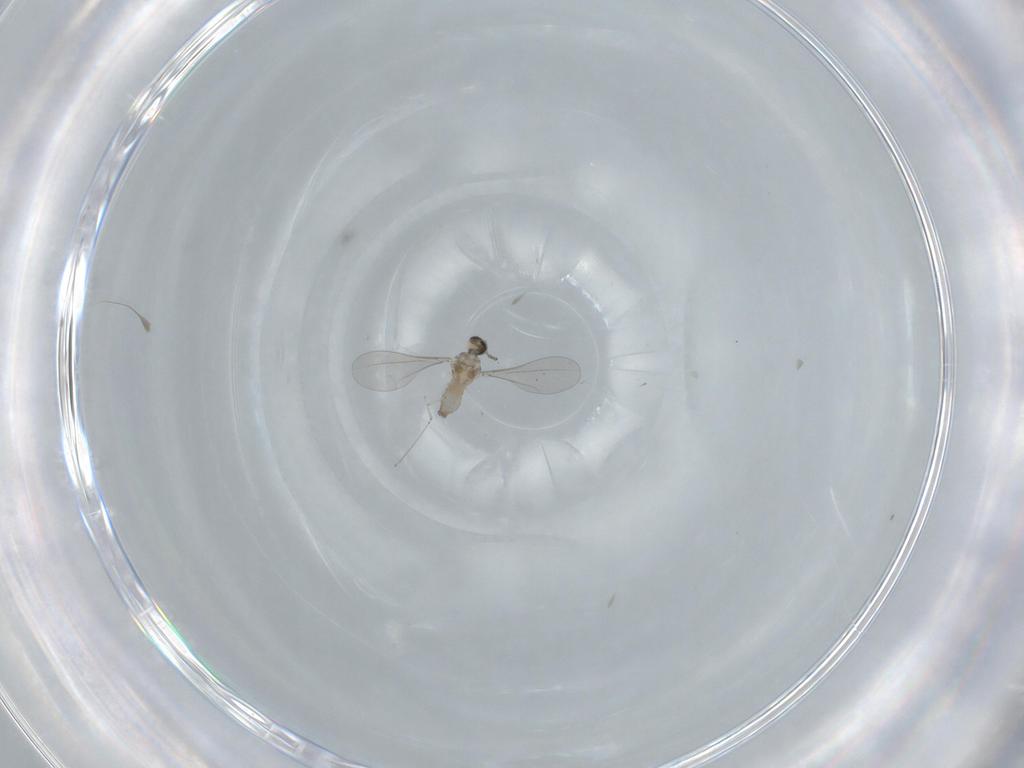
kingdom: Animalia
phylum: Arthropoda
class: Insecta
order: Diptera
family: Cecidomyiidae
